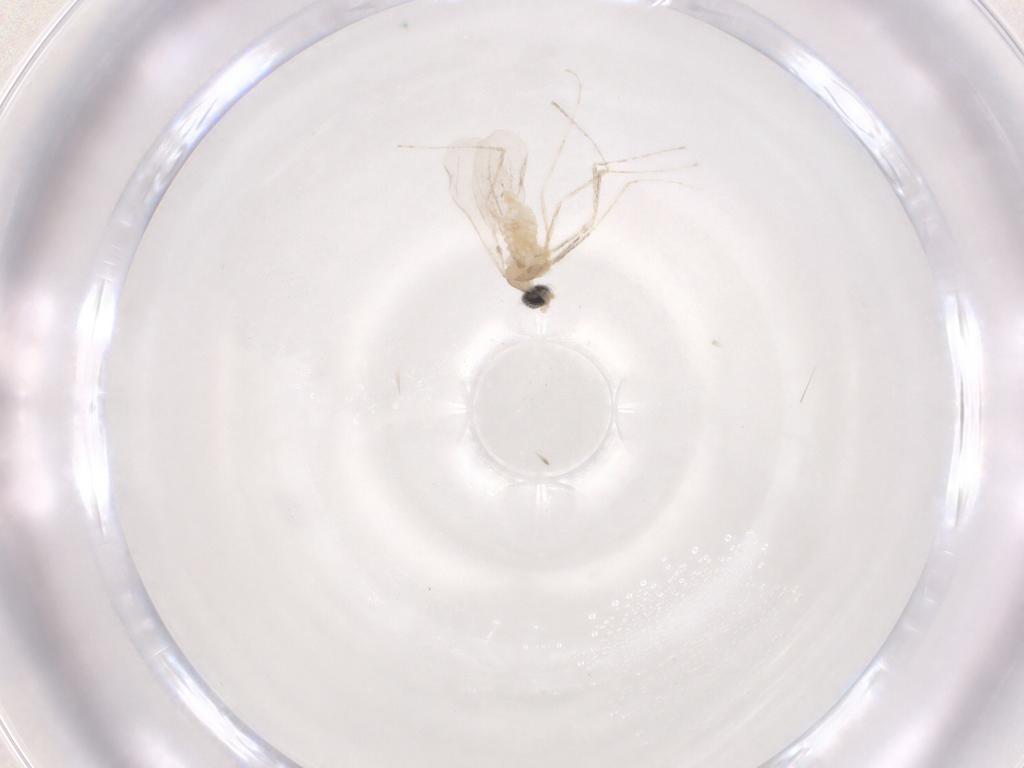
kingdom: Animalia
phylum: Arthropoda
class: Insecta
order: Diptera
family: Cecidomyiidae
